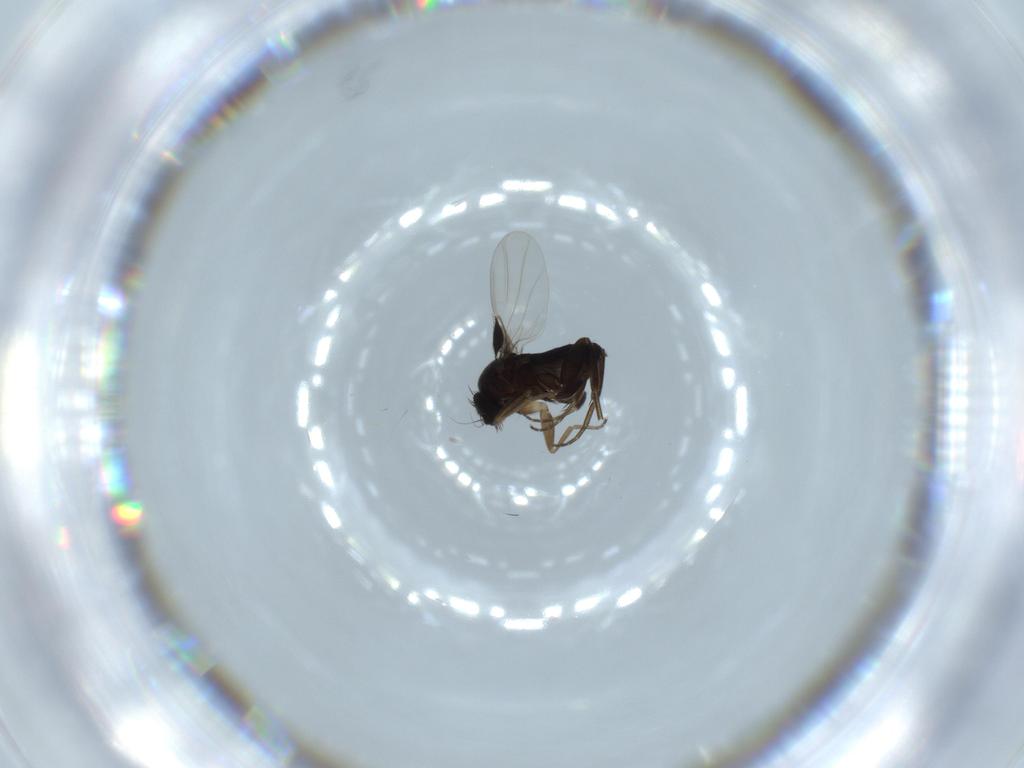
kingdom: Animalia
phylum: Arthropoda
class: Insecta
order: Diptera
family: Phoridae
